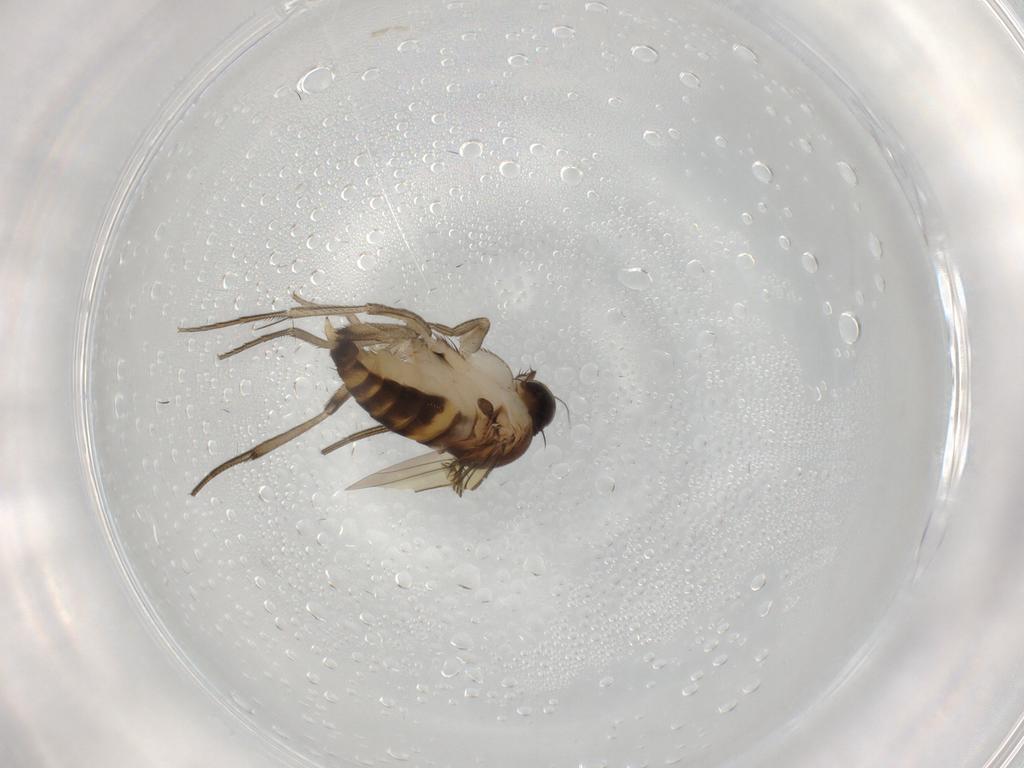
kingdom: Animalia
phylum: Arthropoda
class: Insecta
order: Diptera
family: Phoridae
